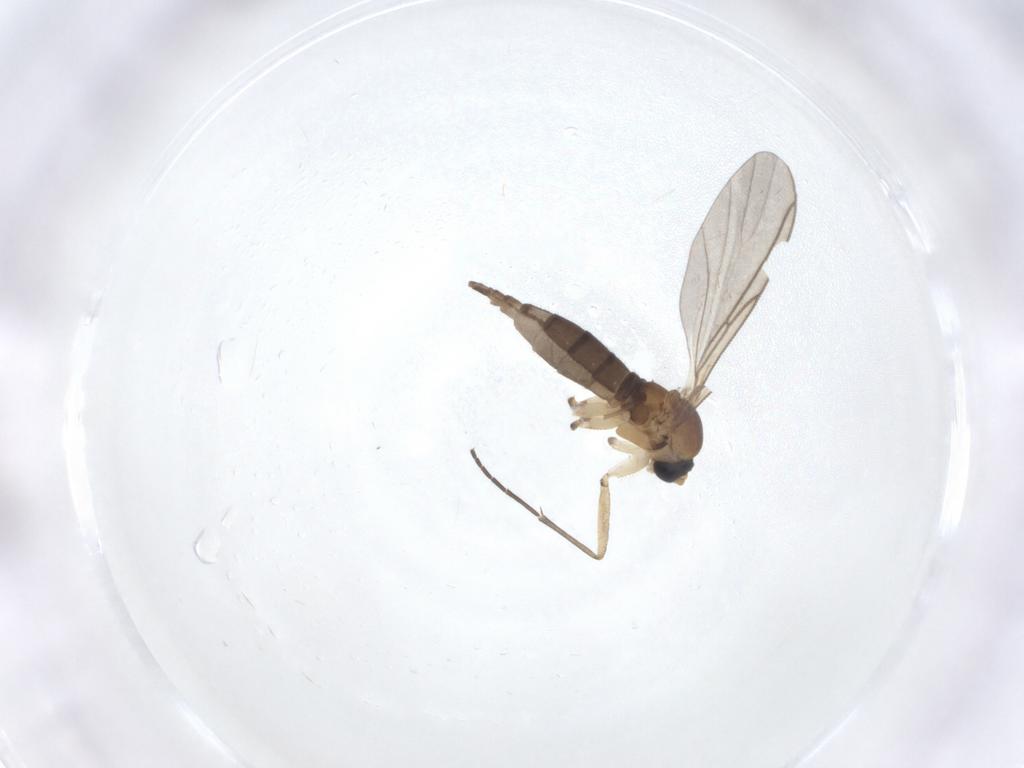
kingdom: Animalia
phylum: Arthropoda
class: Insecta
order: Diptera
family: Sciaridae
